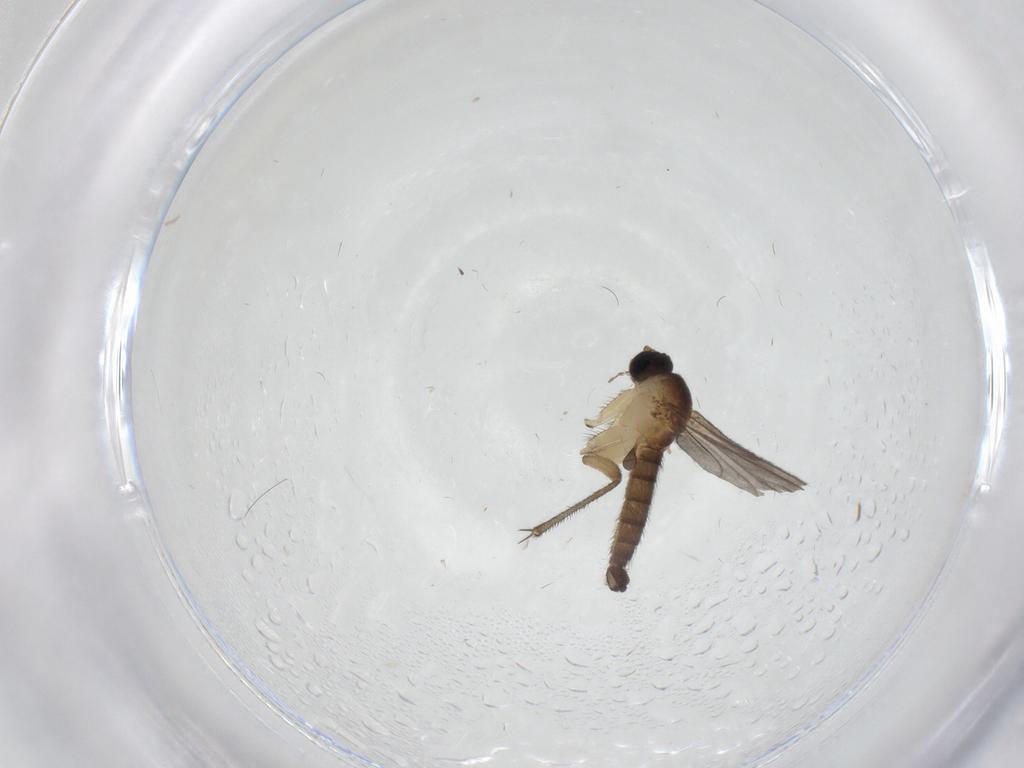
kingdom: Animalia
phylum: Arthropoda
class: Insecta
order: Diptera
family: Sciaridae
